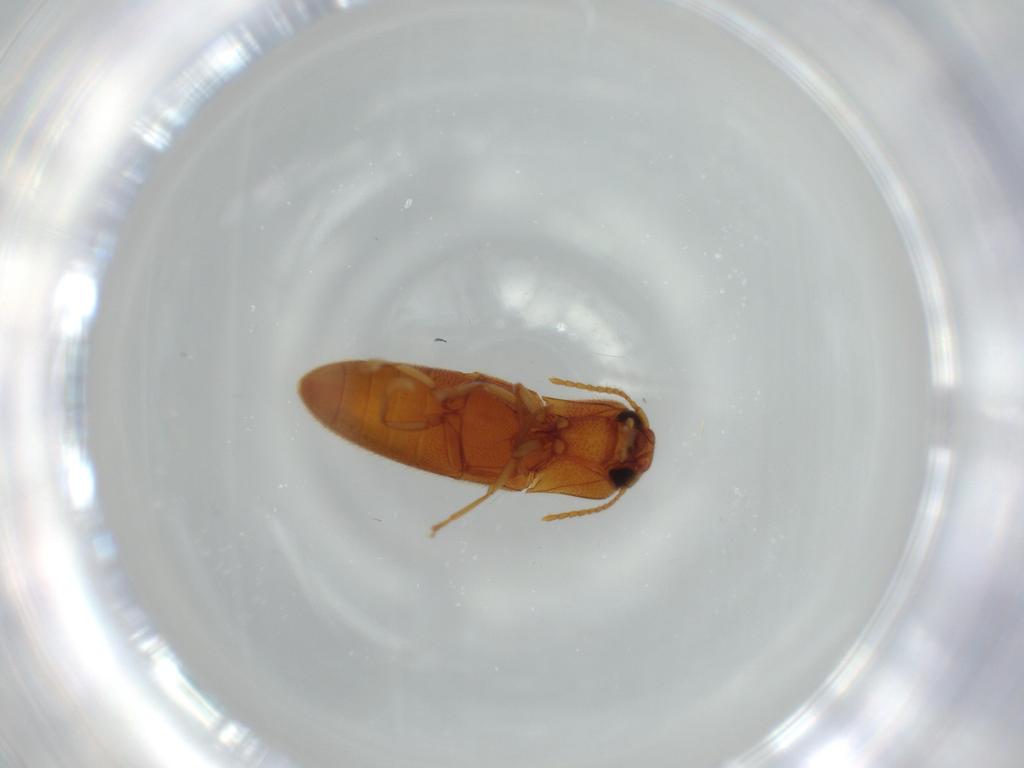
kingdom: Animalia
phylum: Arthropoda
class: Insecta
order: Coleoptera
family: Elateridae
